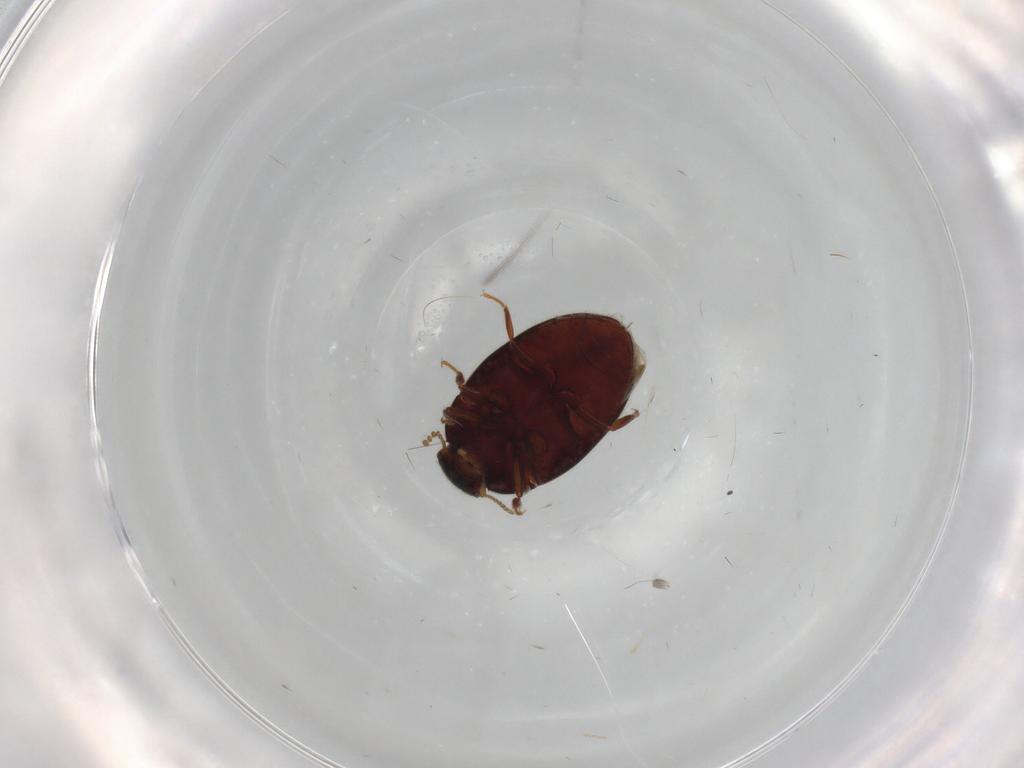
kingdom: Animalia
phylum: Arthropoda
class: Insecta
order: Coleoptera
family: Limnichidae
